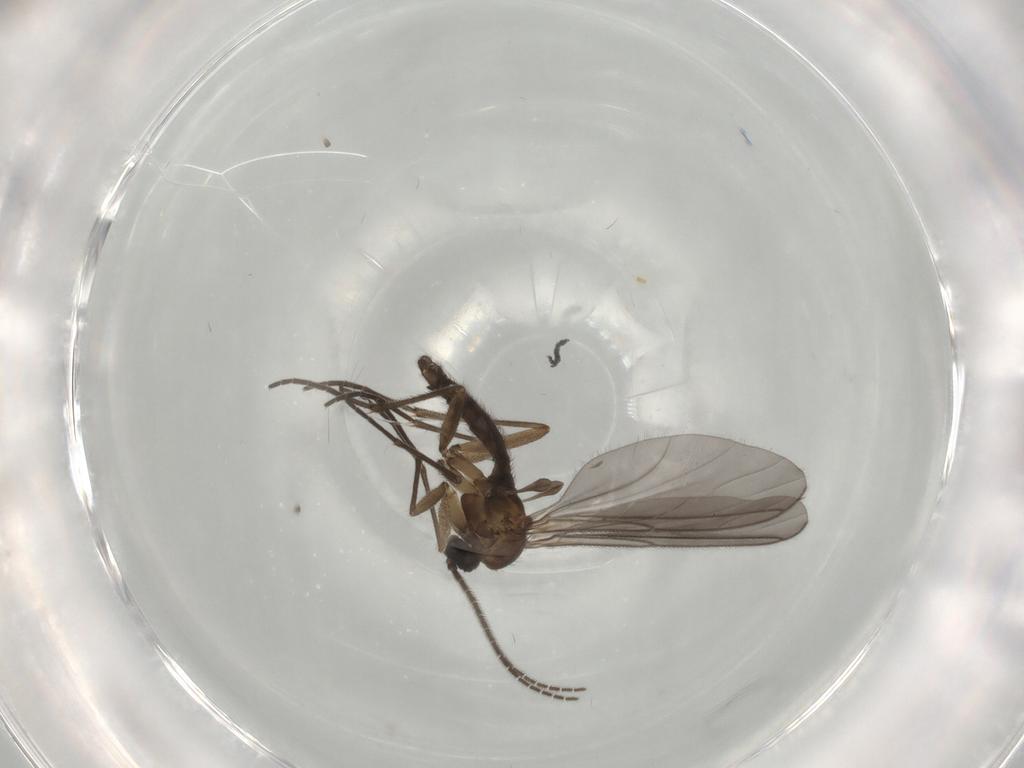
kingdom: Animalia
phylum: Arthropoda
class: Insecta
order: Diptera
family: Sciaridae
